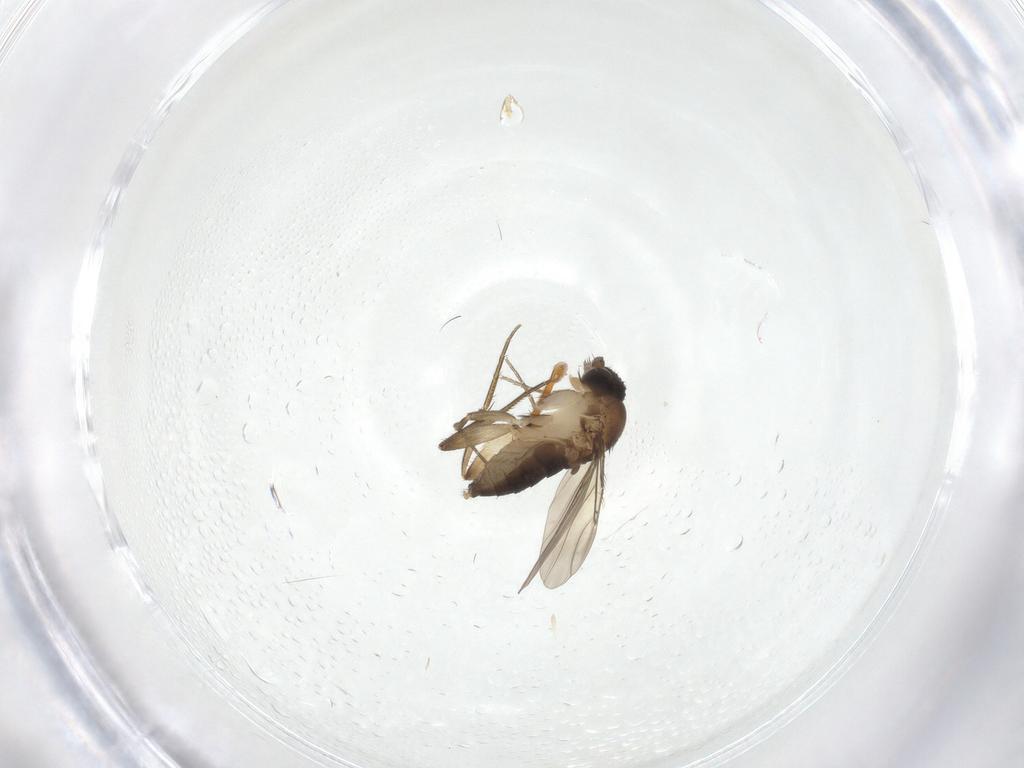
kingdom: Animalia
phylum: Arthropoda
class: Insecta
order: Diptera
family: Phoridae
